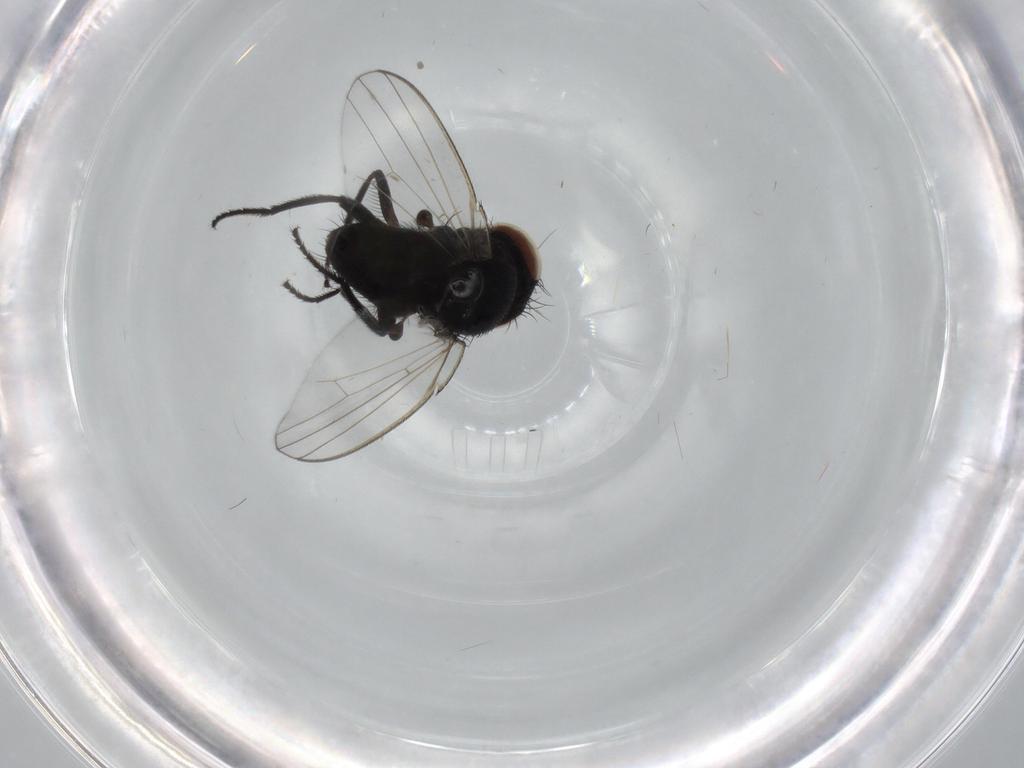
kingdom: Animalia
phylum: Arthropoda
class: Insecta
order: Diptera
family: Milichiidae
